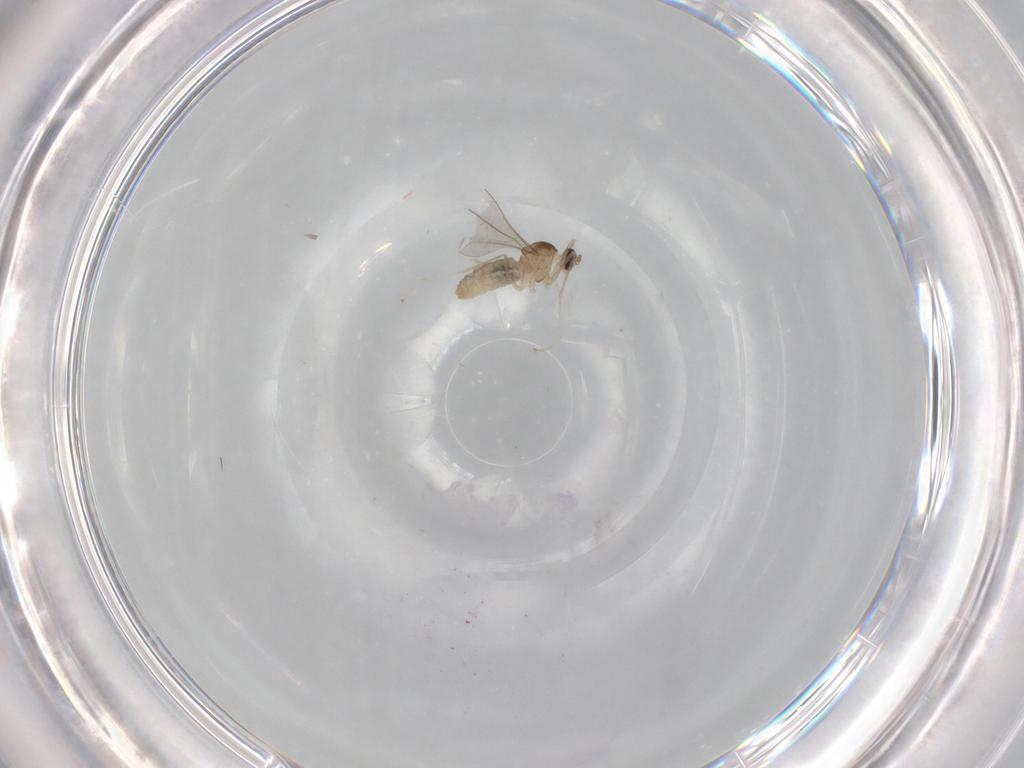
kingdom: Animalia
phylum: Arthropoda
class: Insecta
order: Diptera
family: Cecidomyiidae
